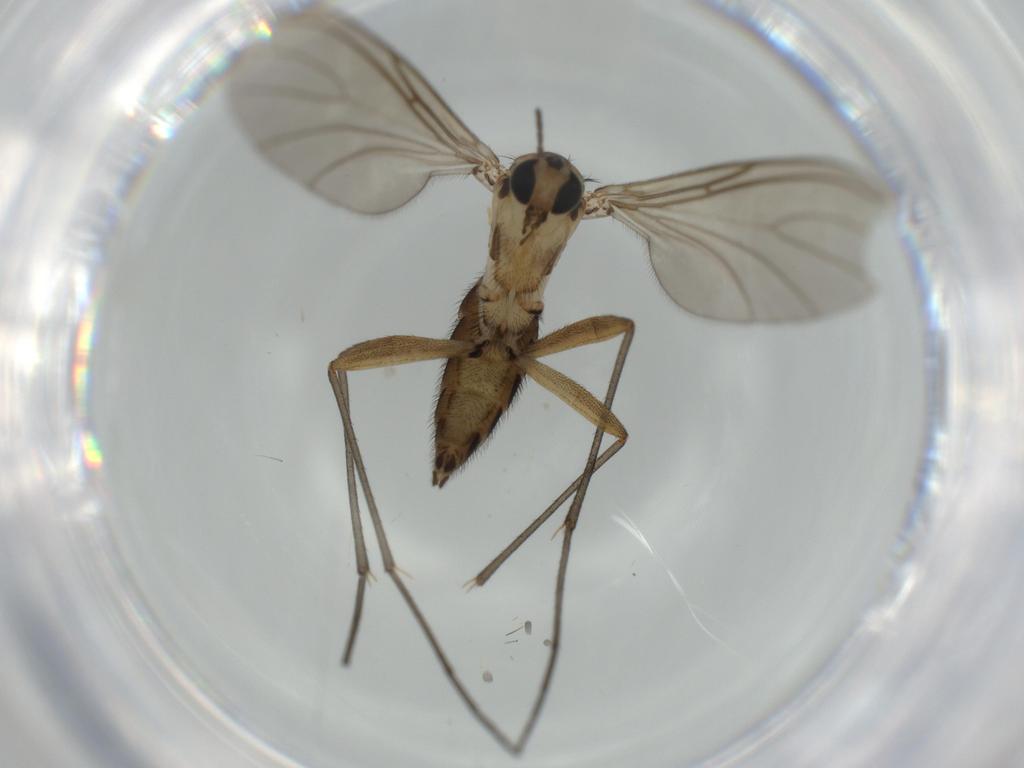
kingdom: Animalia
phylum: Arthropoda
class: Insecta
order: Diptera
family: Sciaridae
